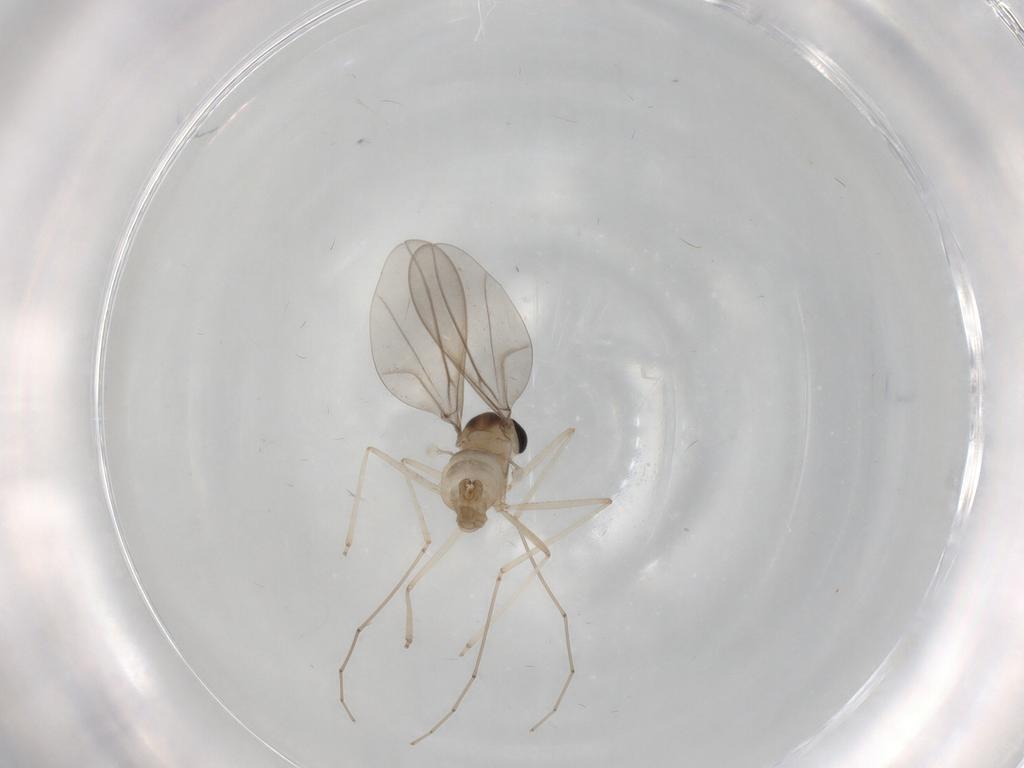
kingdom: Animalia
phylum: Arthropoda
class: Insecta
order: Diptera
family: Cecidomyiidae
